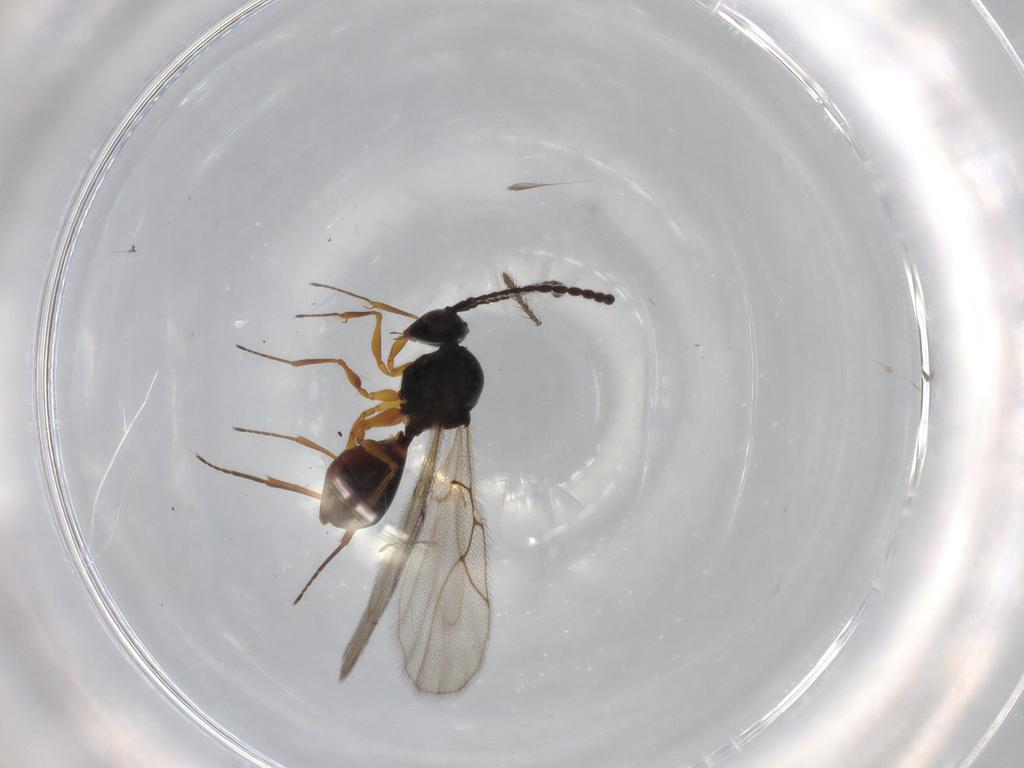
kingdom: Animalia
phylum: Arthropoda
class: Insecta
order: Hymenoptera
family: Figitidae
